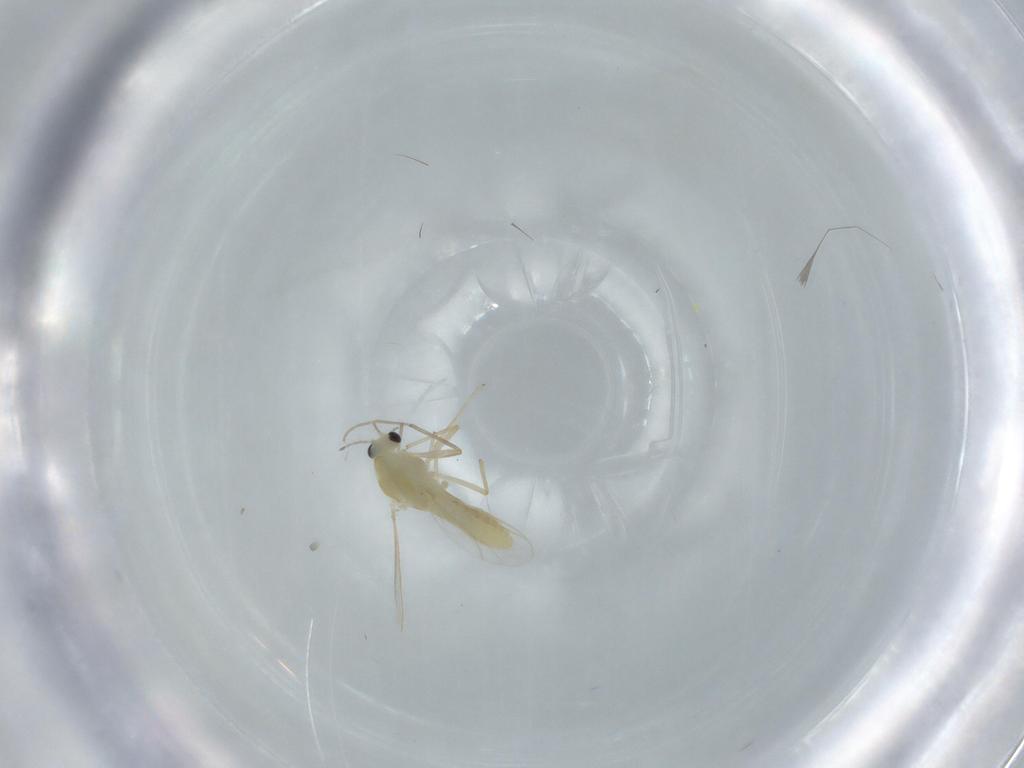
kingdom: Animalia
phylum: Arthropoda
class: Insecta
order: Diptera
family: Chironomidae
